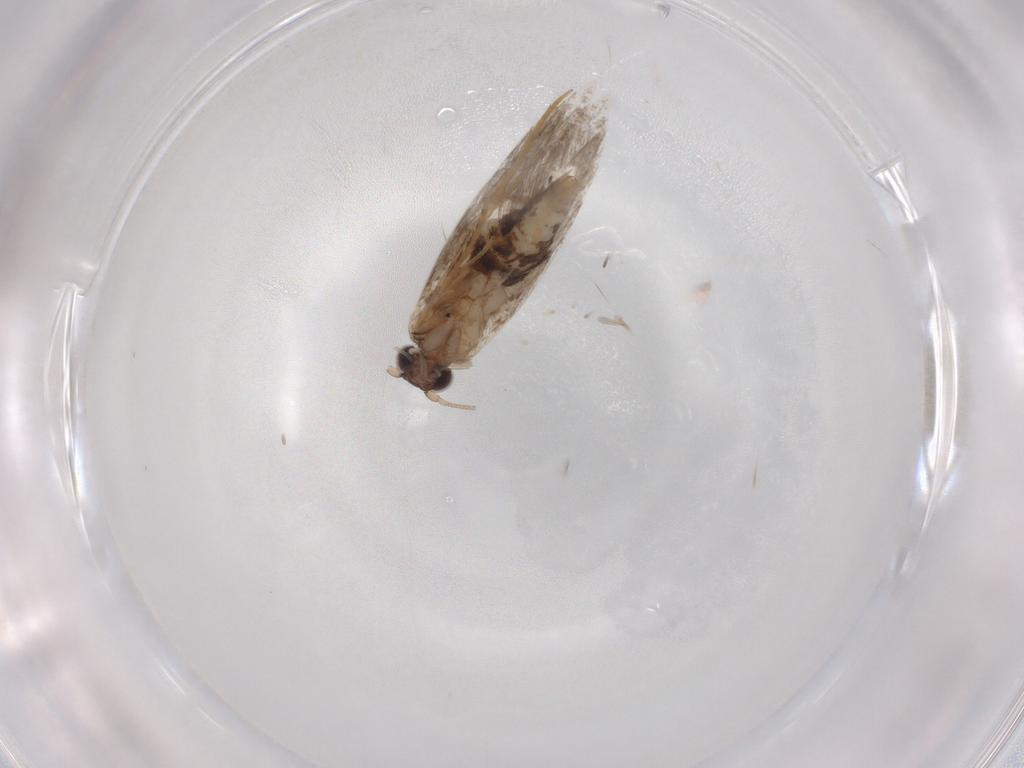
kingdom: Animalia
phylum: Arthropoda
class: Insecta
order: Lepidoptera
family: Crambidae
